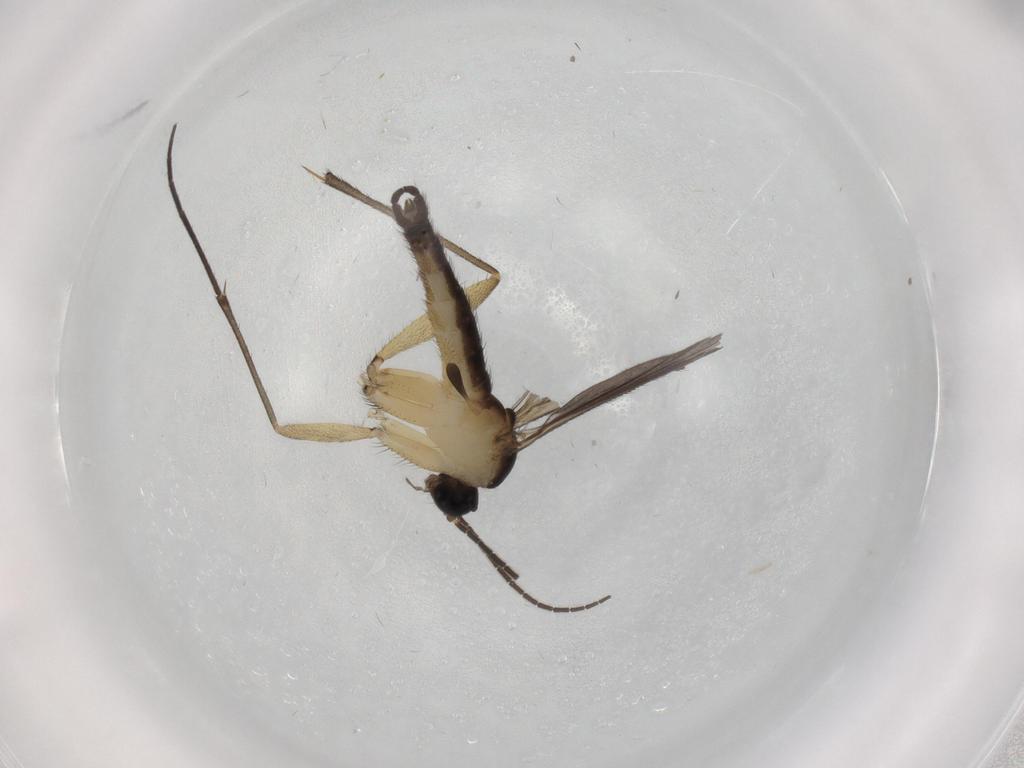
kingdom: Animalia
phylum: Arthropoda
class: Insecta
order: Diptera
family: Sciaridae
